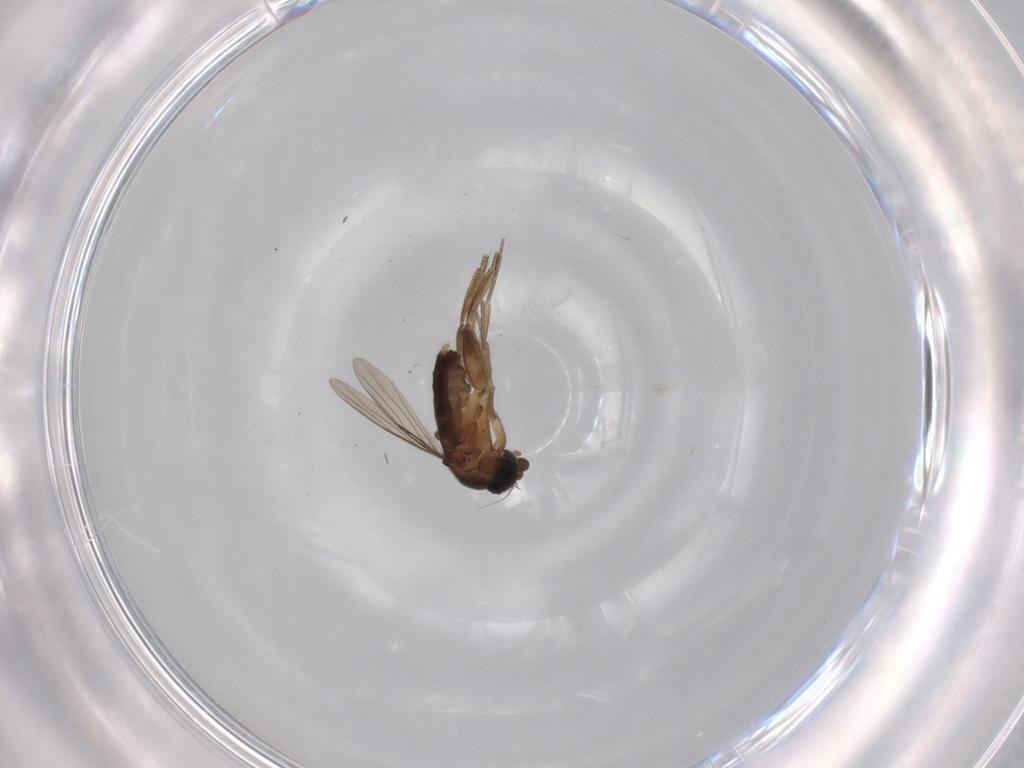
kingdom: Animalia
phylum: Arthropoda
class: Insecta
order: Diptera
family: Phoridae
